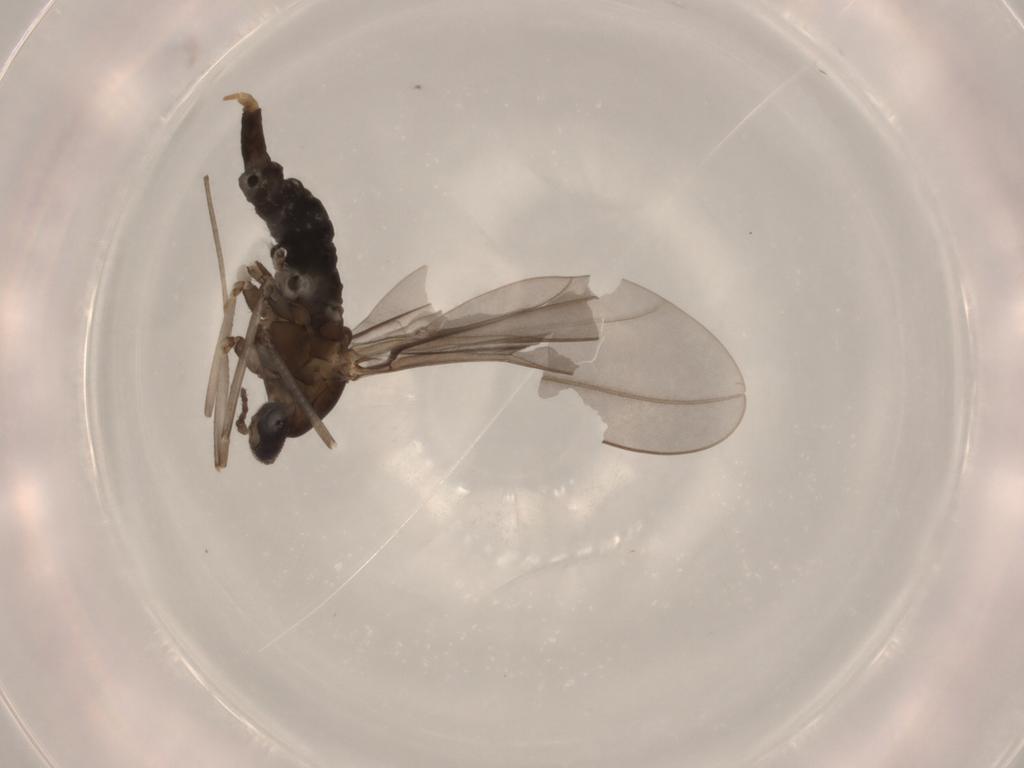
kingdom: Animalia
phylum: Arthropoda
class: Insecta
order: Diptera
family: Cecidomyiidae
